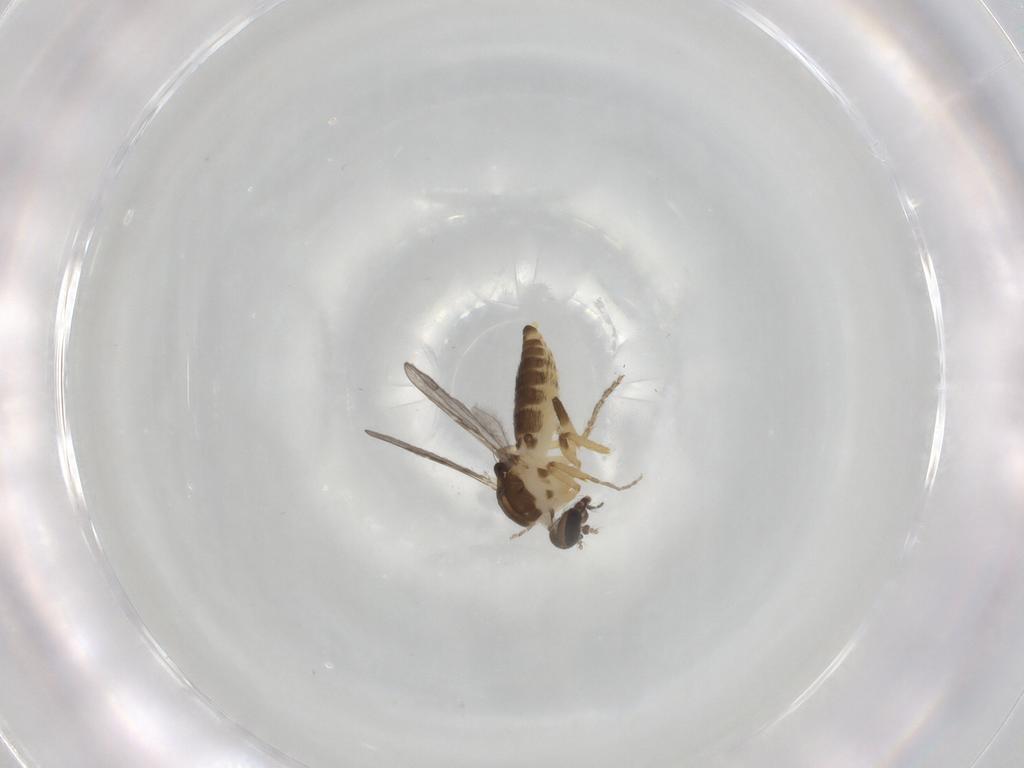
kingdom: Animalia
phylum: Arthropoda
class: Insecta
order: Diptera
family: Ceratopogonidae
